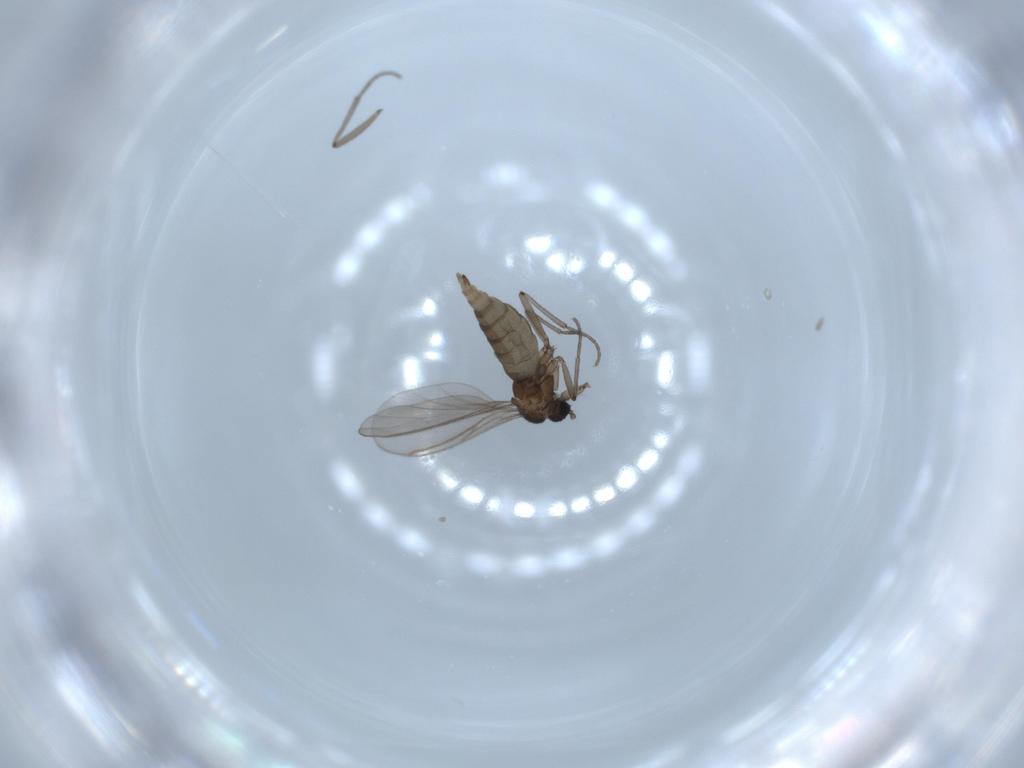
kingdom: Animalia
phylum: Arthropoda
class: Insecta
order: Diptera
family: Sciaridae
